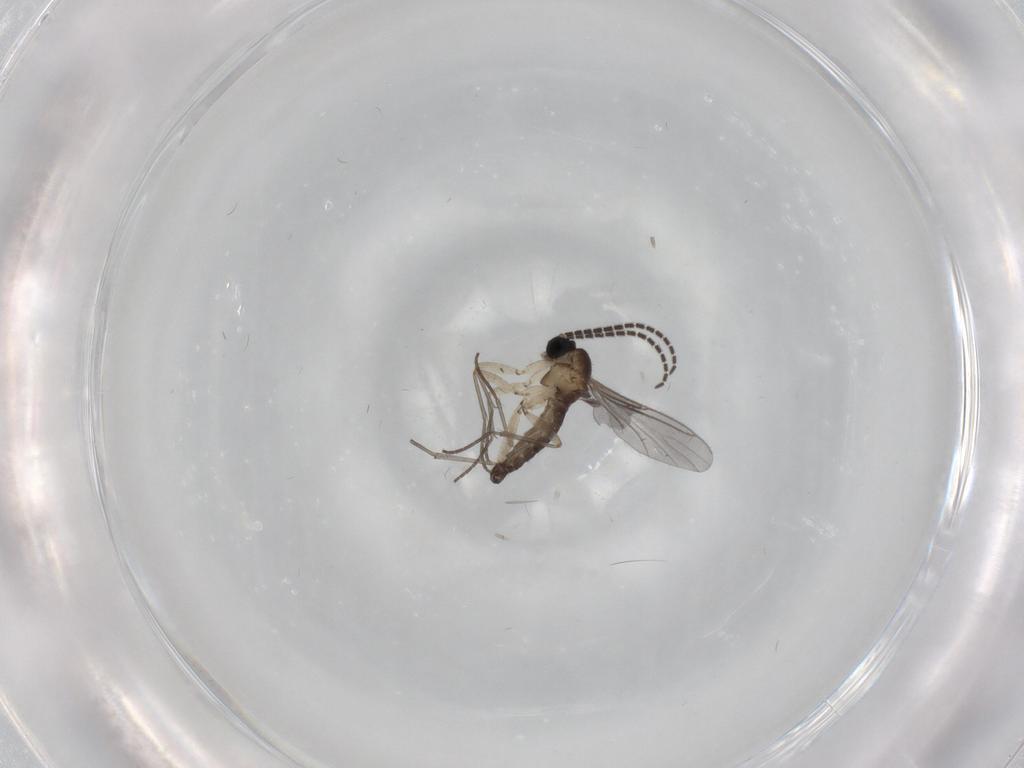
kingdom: Animalia
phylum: Arthropoda
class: Insecta
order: Diptera
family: Sciaridae
